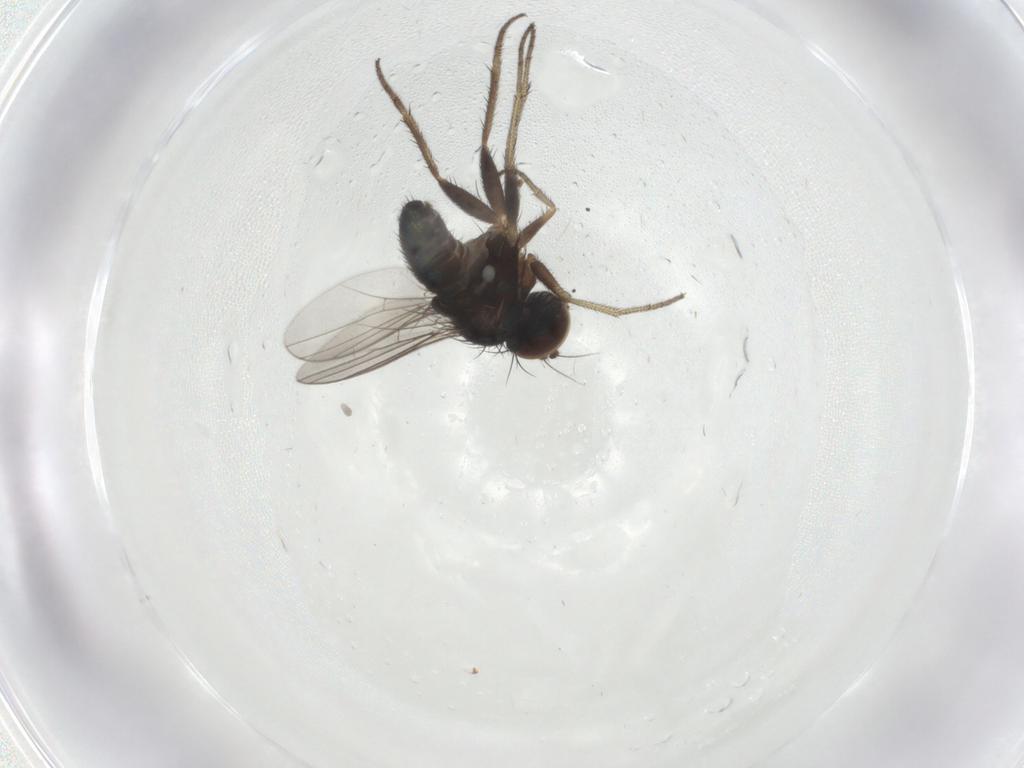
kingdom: Animalia
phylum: Arthropoda
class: Insecta
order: Diptera
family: Dolichopodidae
